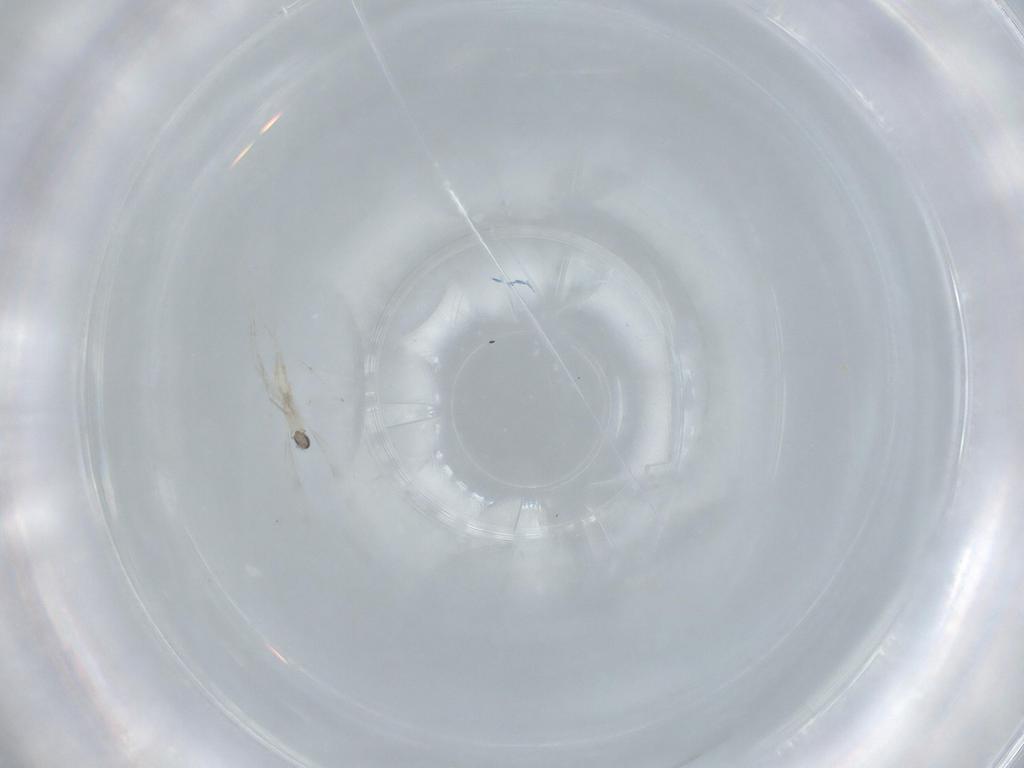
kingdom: Animalia
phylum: Arthropoda
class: Insecta
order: Diptera
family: Cecidomyiidae
